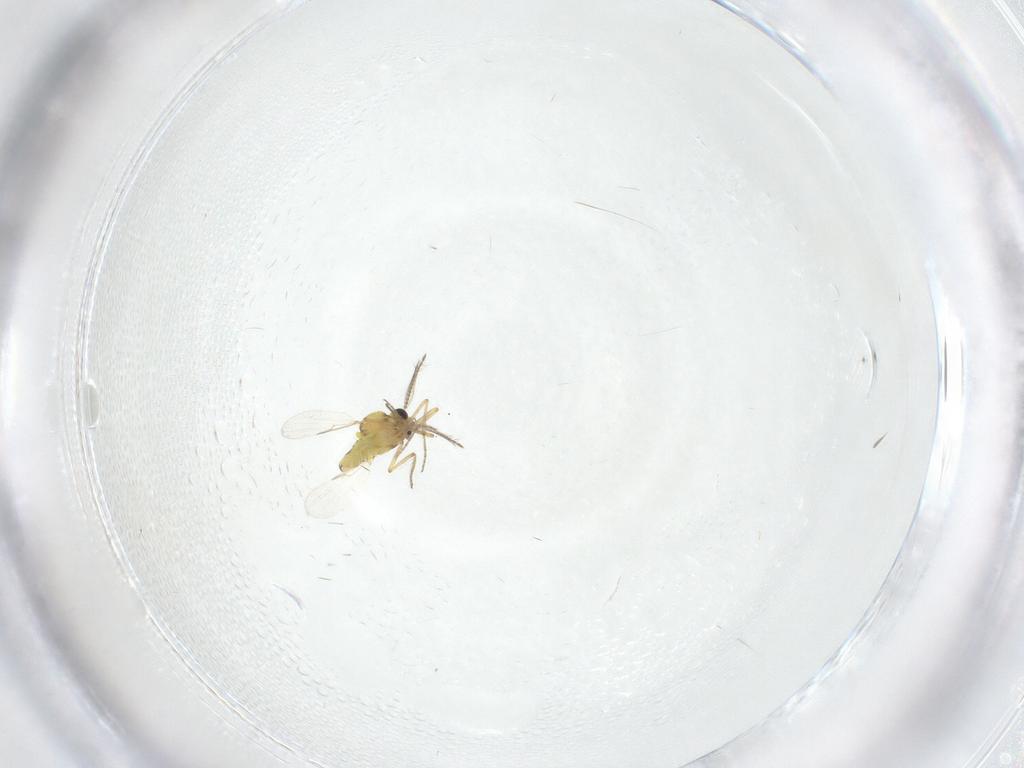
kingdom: Animalia
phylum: Arthropoda
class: Insecta
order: Diptera
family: Ceratopogonidae
